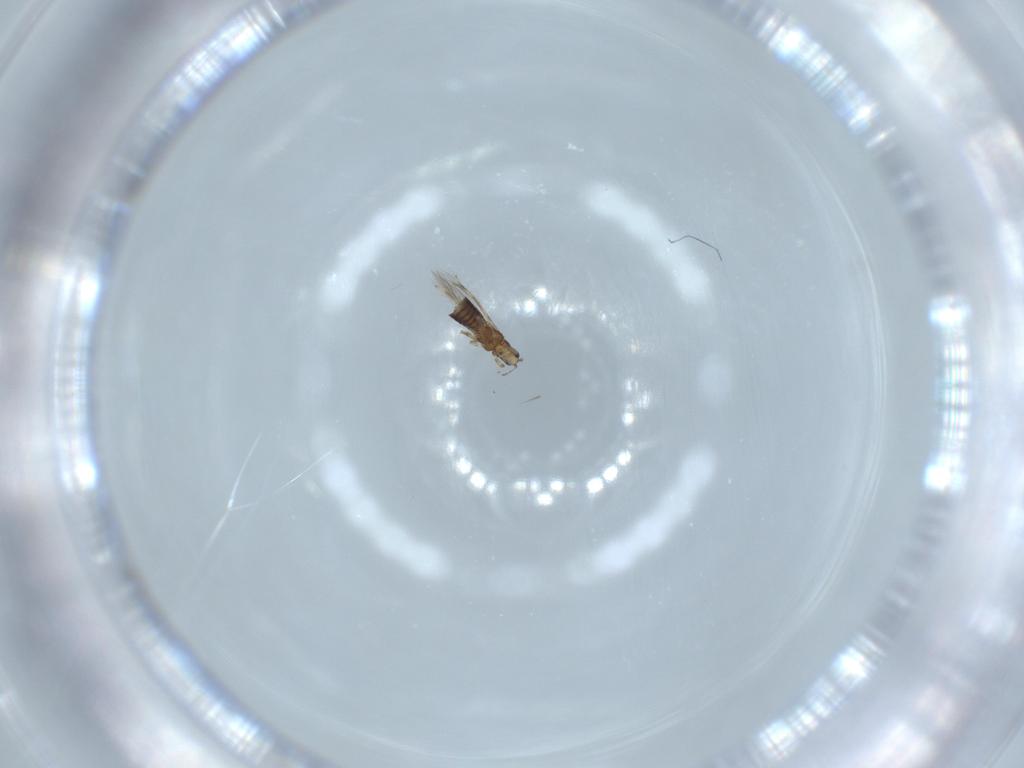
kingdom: Animalia
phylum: Arthropoda
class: Insecta
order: Thysanoptera
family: Thripidae
